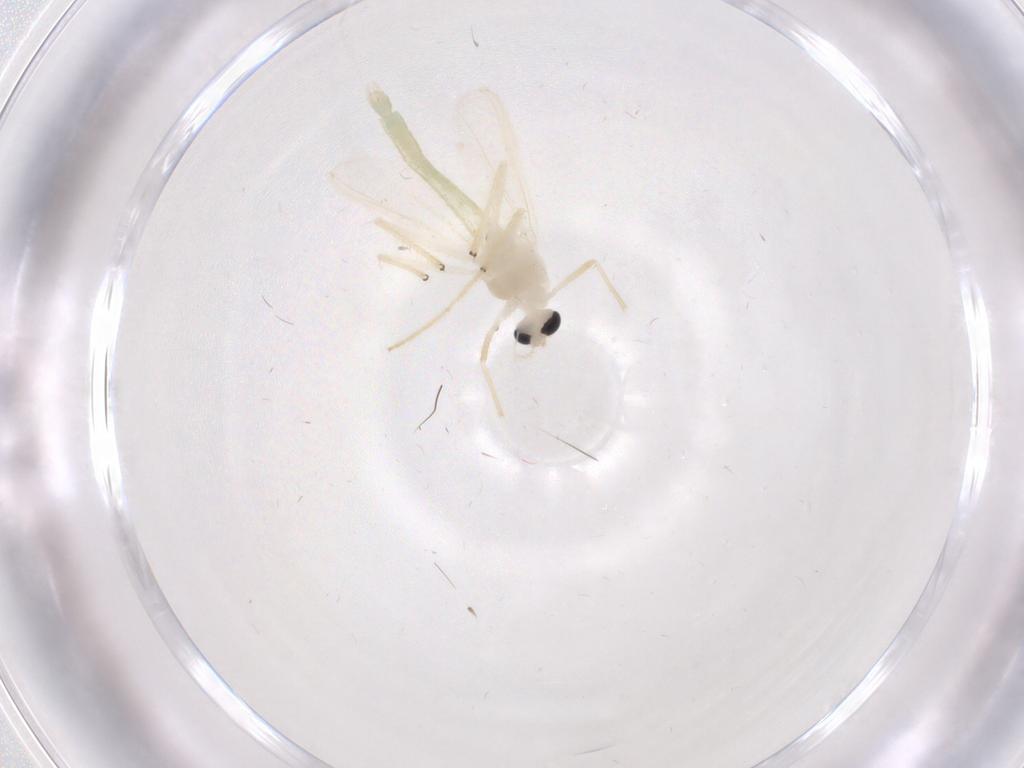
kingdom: Animalia
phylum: Arthropoda
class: Insecta
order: Diptera
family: Chironomidae
